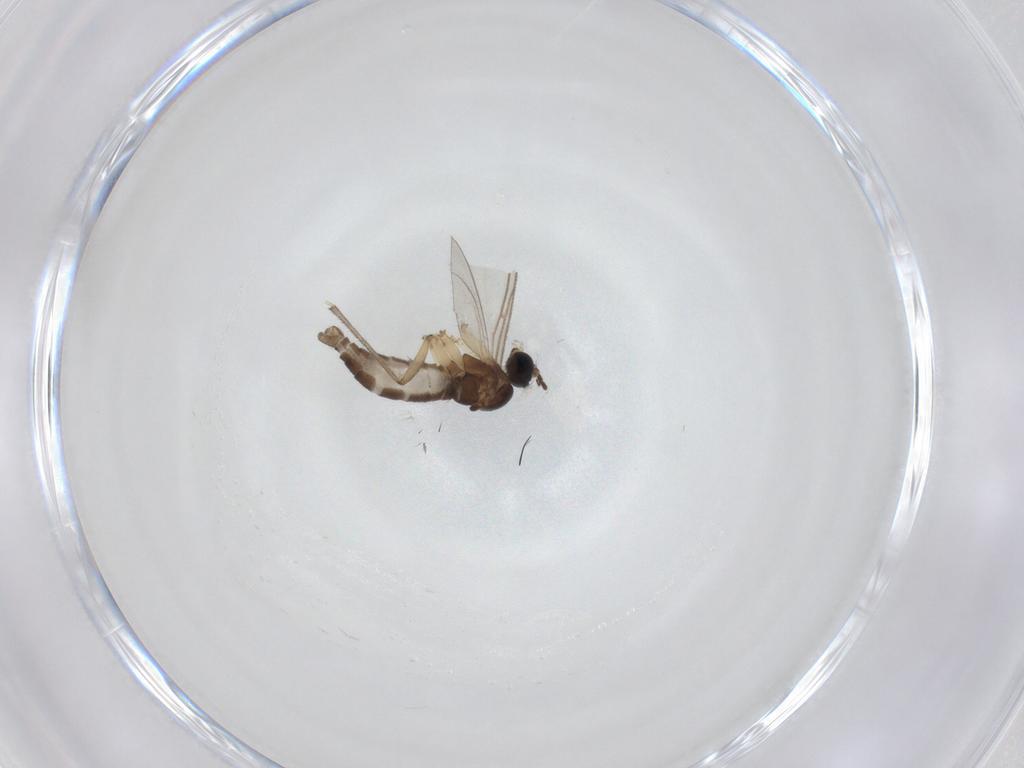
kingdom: Animalia
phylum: Arthropoda
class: Insecta
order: Diptera
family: Sciaridae
